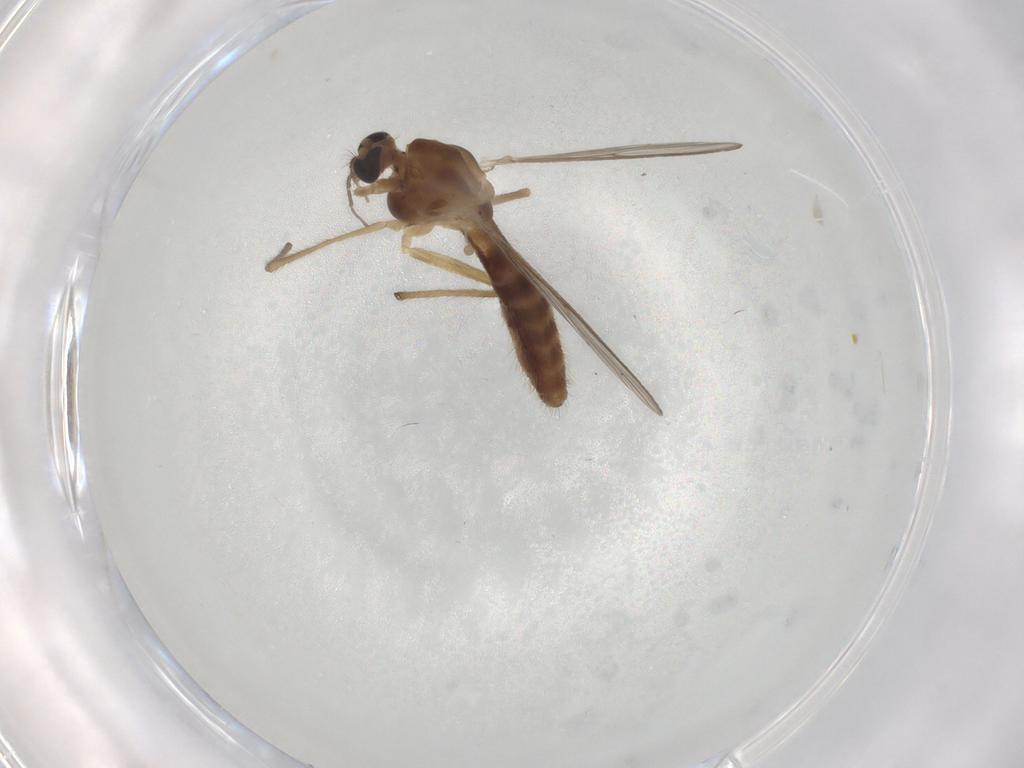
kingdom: Animalia
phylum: Arthropoda
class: Insecta
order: Diptera
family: Chironomidae
